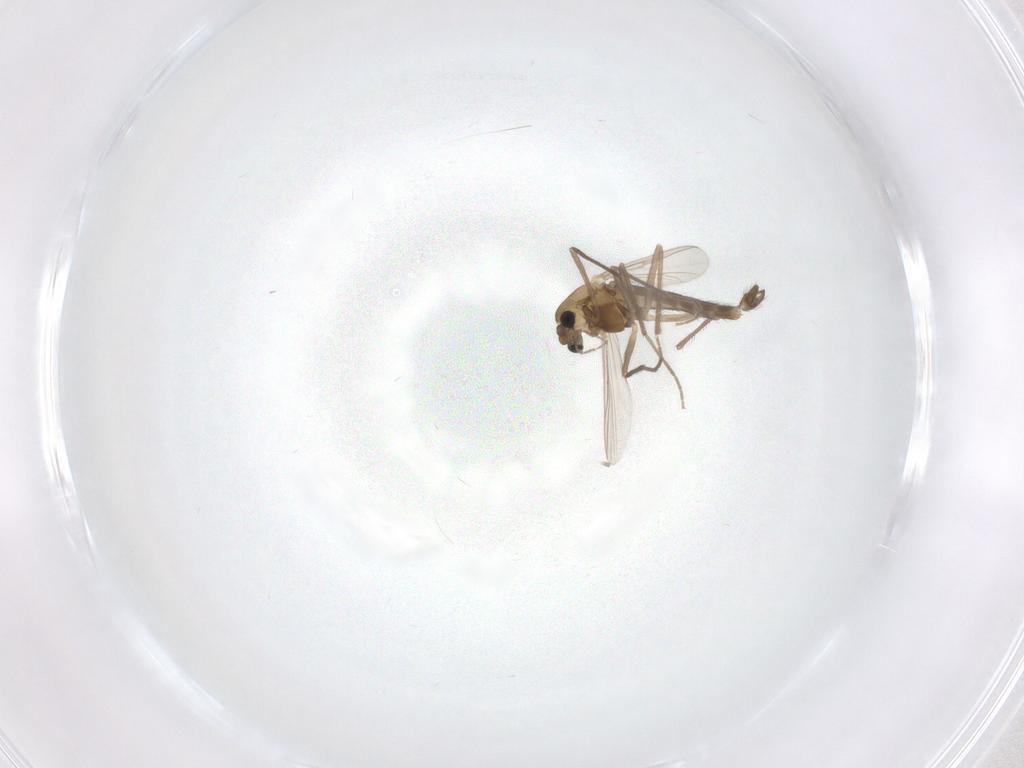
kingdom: Animalia
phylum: Arthropoda
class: Insecta
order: Diptera
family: Chironomidae
